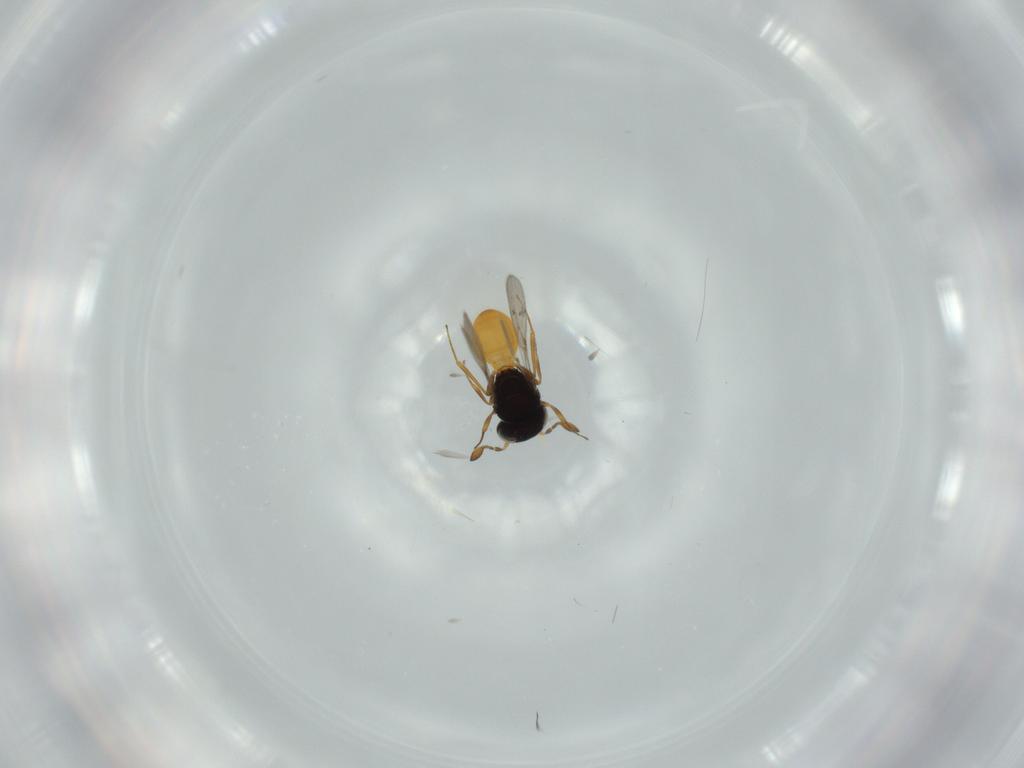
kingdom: Animalia
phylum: Arthropoda
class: Insecta
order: Hymenoptera
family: Scelionidae
